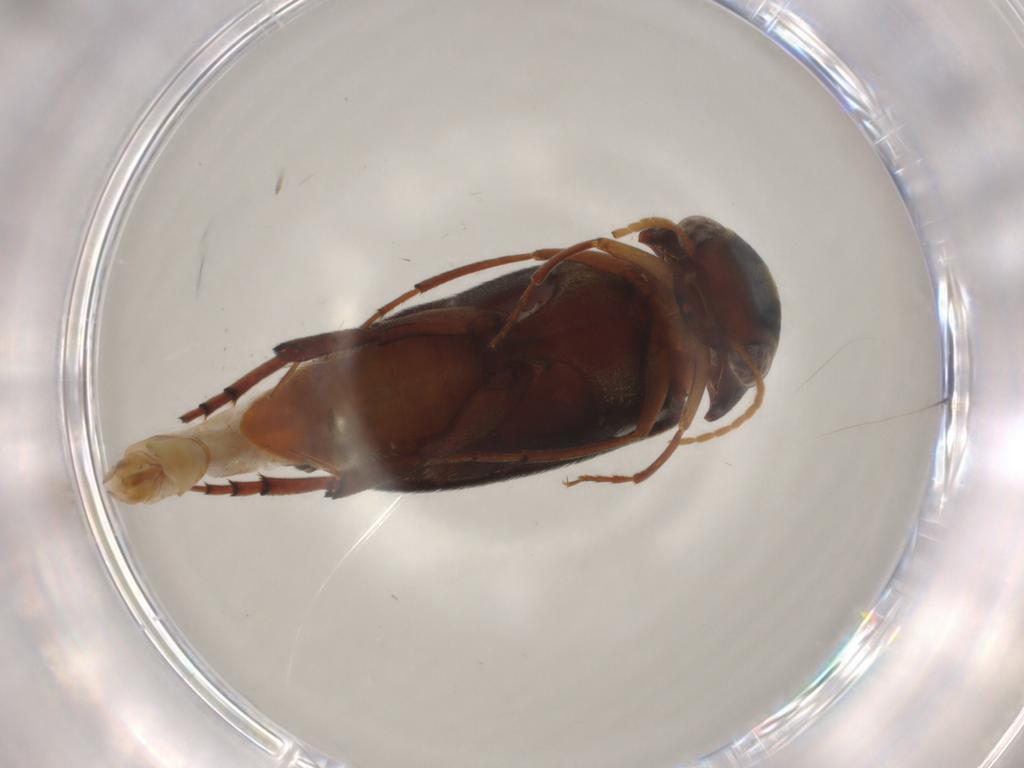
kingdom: Animalia
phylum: Arthropoda
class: Insecta
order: Coleoptera
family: Mordellidae
